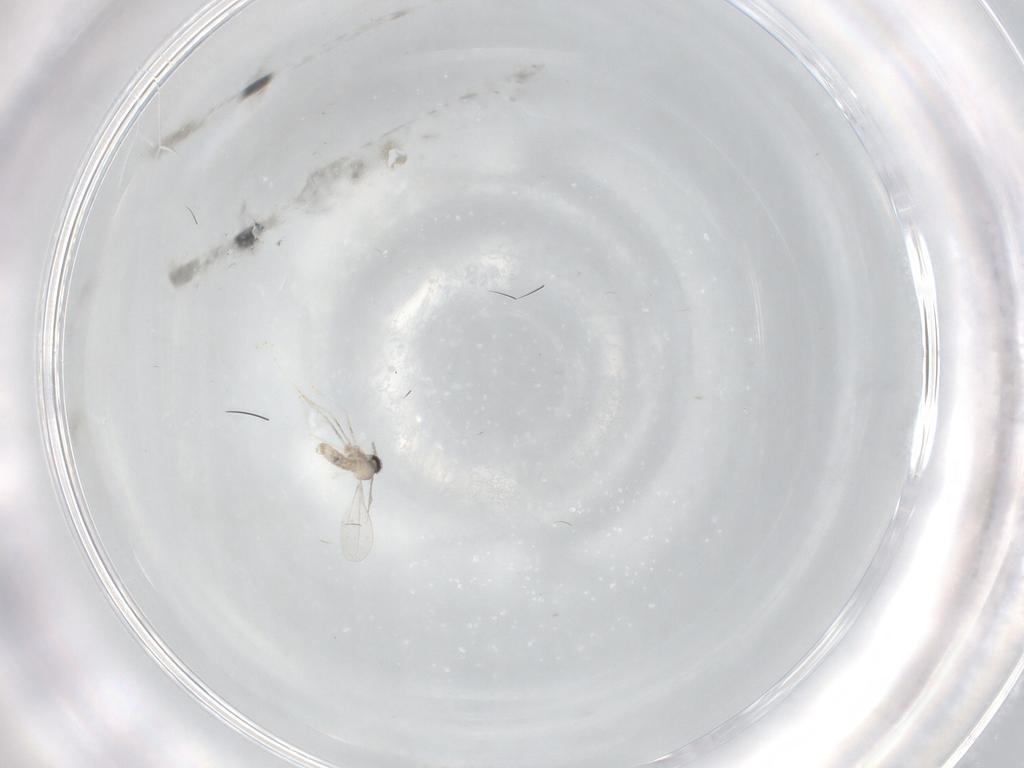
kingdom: Animalia
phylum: Arthropoda
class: Insecta
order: Diptera
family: Cecidomyiidae
